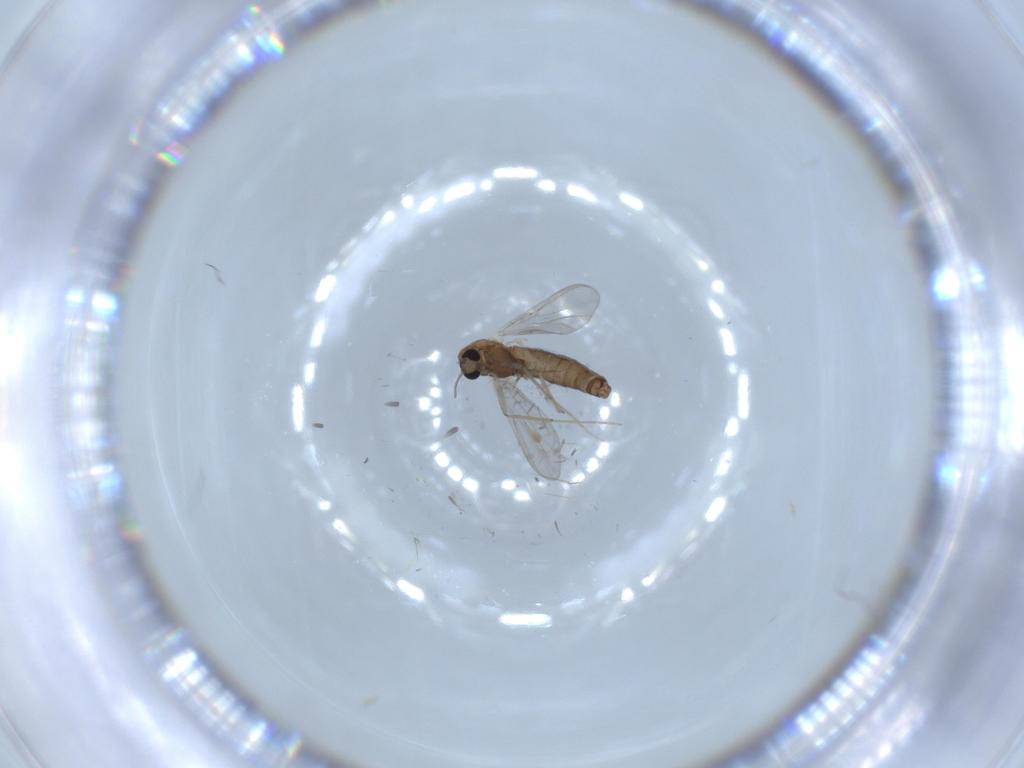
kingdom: Animalia
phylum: Arthropoda
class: Insecta
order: Diptera
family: Chironomidae
